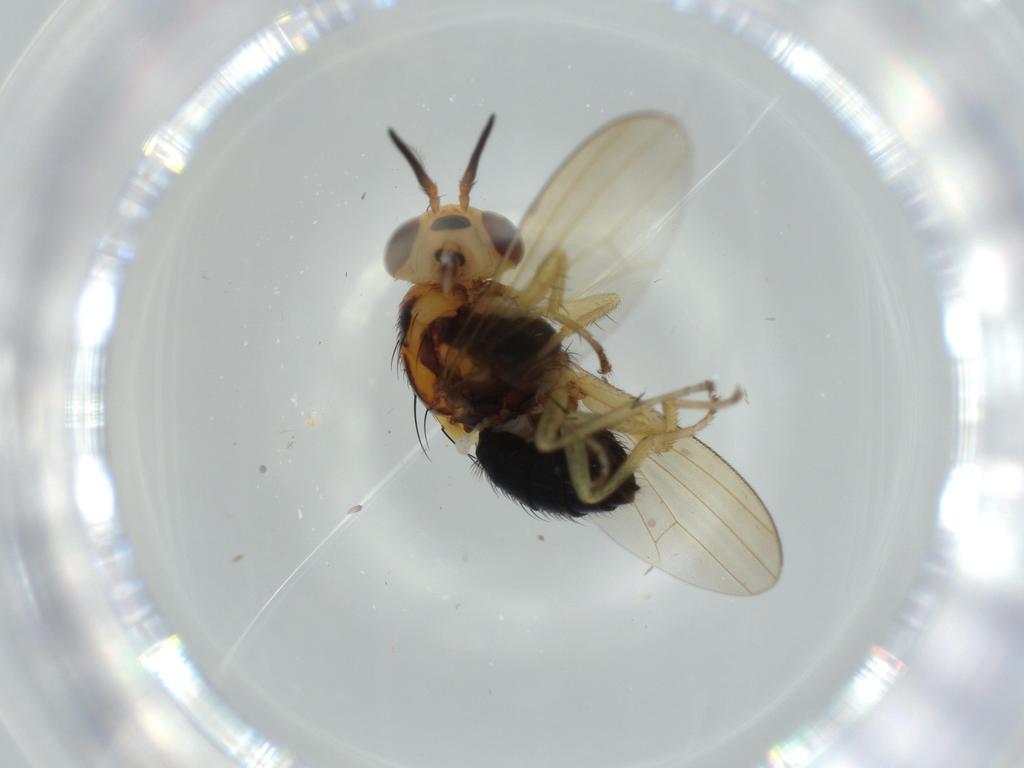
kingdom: Animalia
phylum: Arthropoda
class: Insecta
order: Diptera
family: Lauxaniidae
